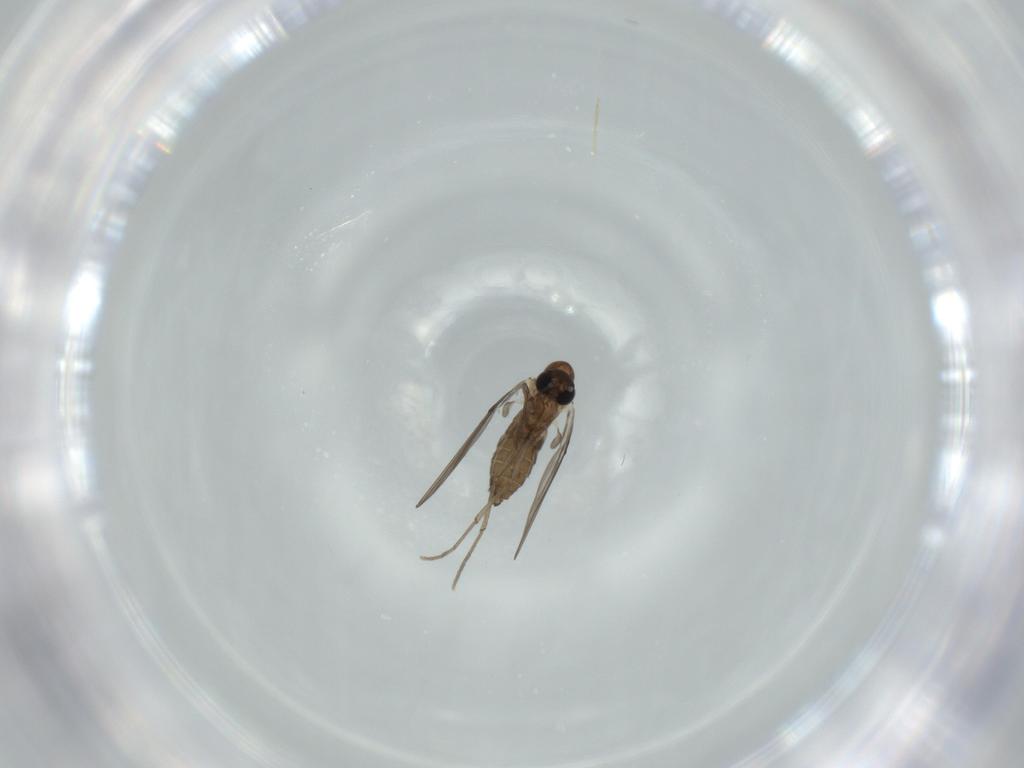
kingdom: Animalia
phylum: Arthropoda
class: Insecta
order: Diptera
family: Psychodidae
